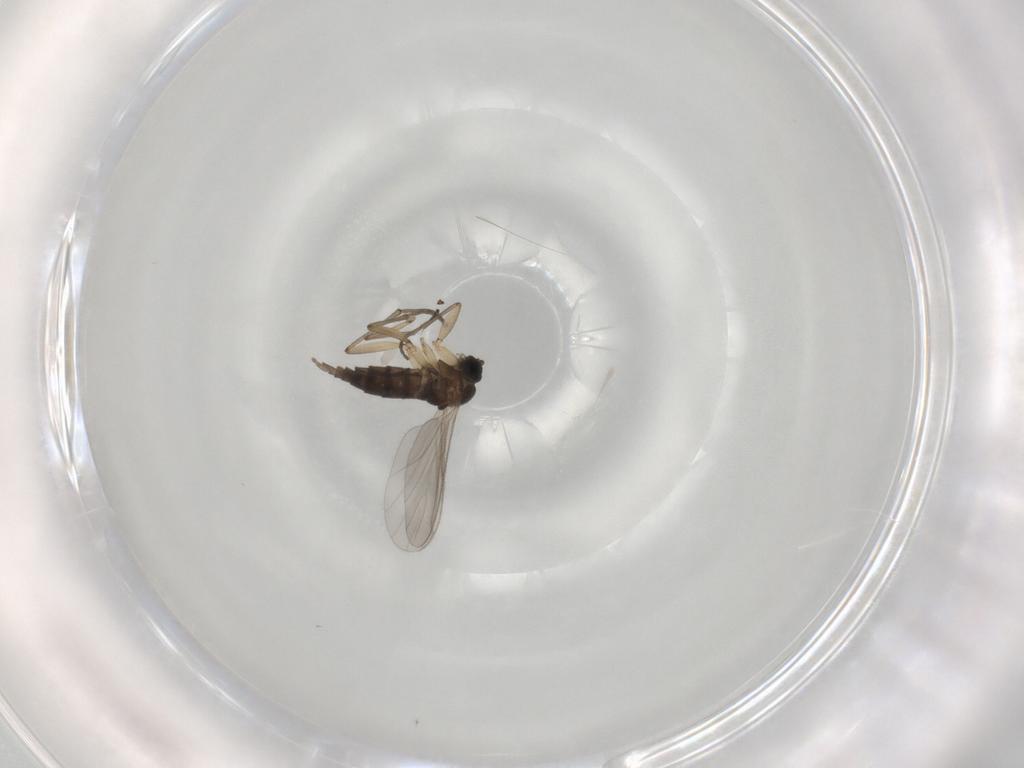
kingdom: Animalia
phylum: Arthropoda
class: Insecta
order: Diptera
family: Sciaridae
